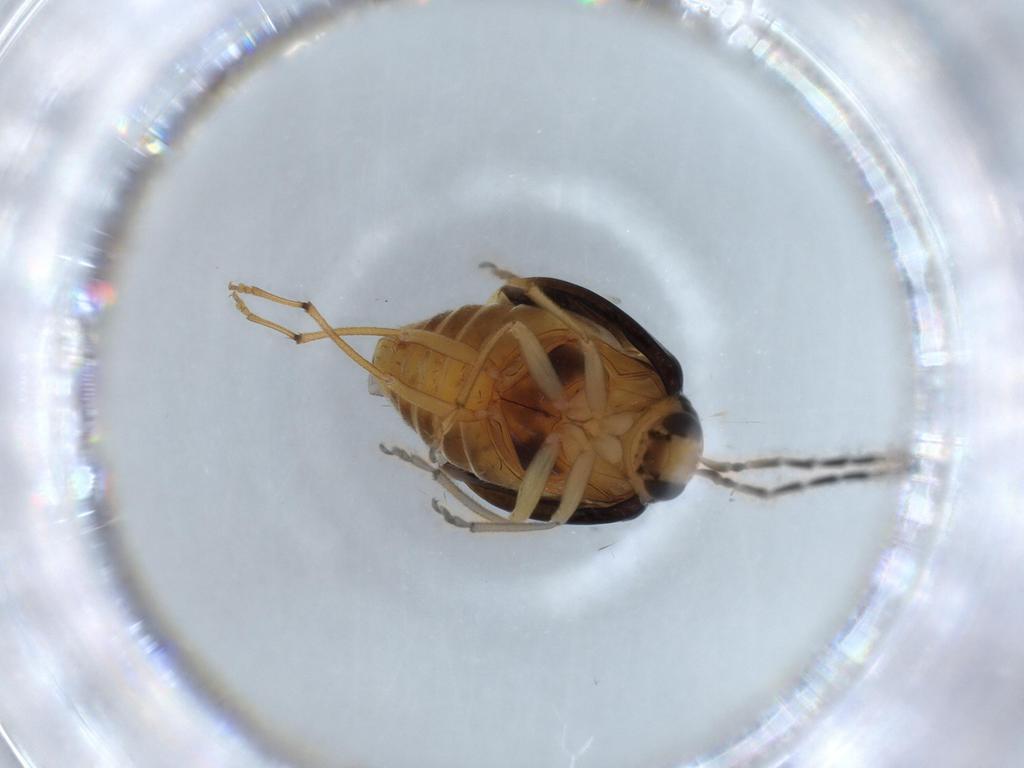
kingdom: Animalia
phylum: Arthropoda
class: Insecta
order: Coleoptera
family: Chrysomelidae
